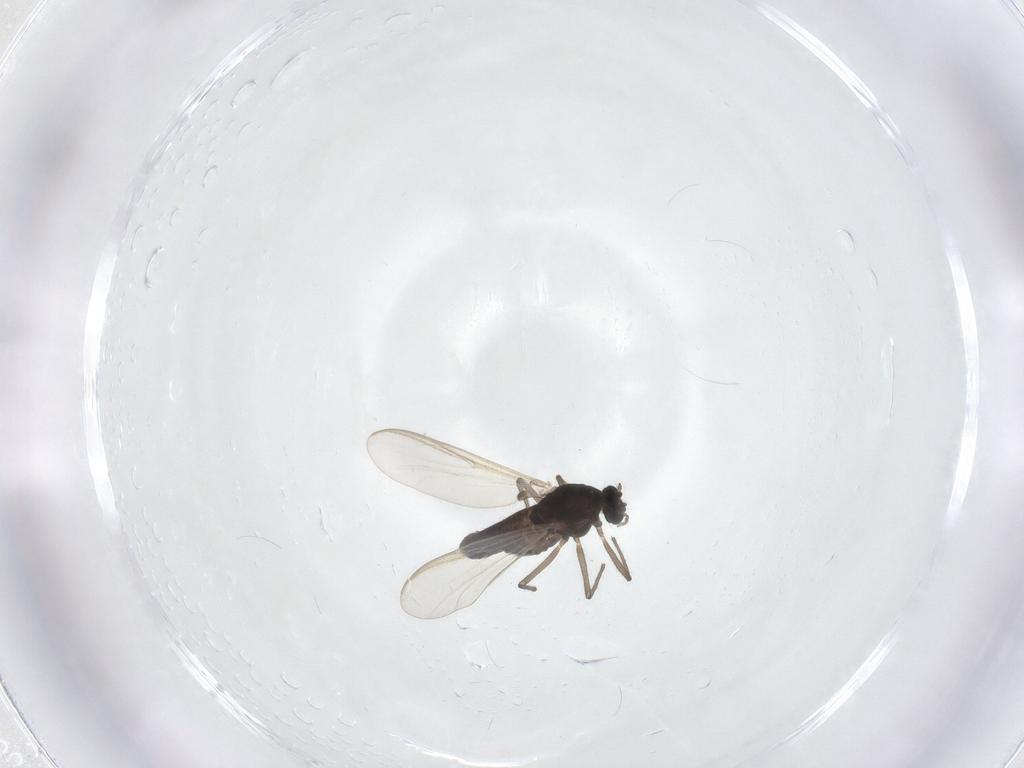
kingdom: Animalia
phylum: Arthropoda
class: Insecta
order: Diptera
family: Chironomidae
